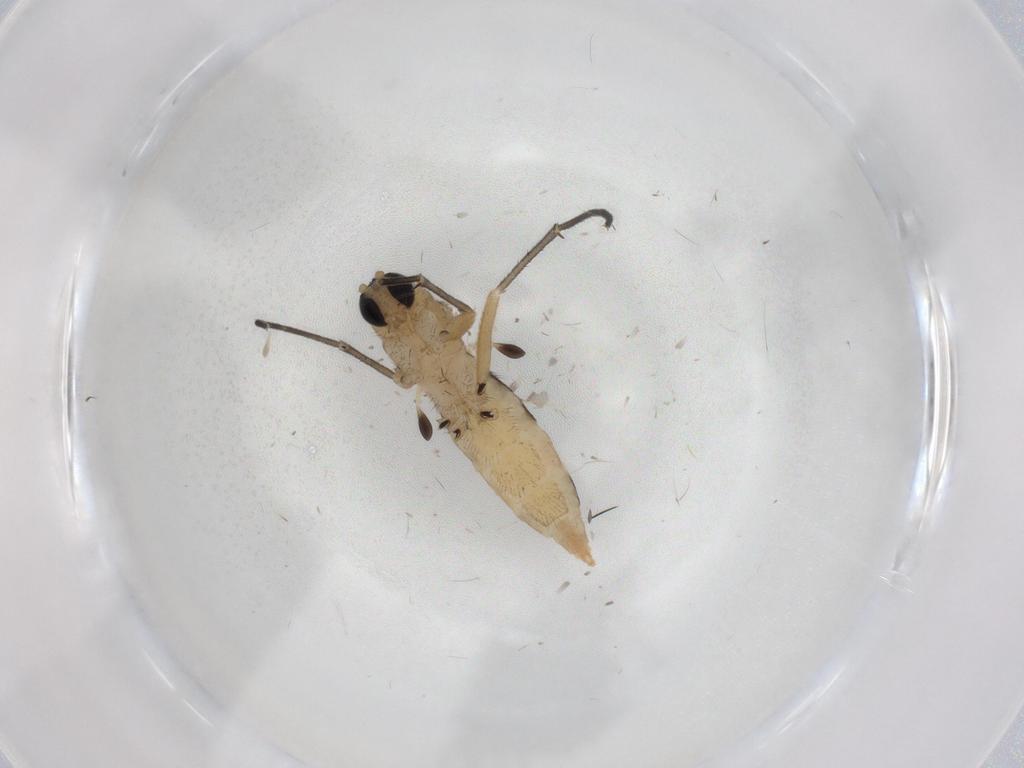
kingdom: Animalia
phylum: Arthropoda
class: Insecta
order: Diptera
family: Sciaridae
